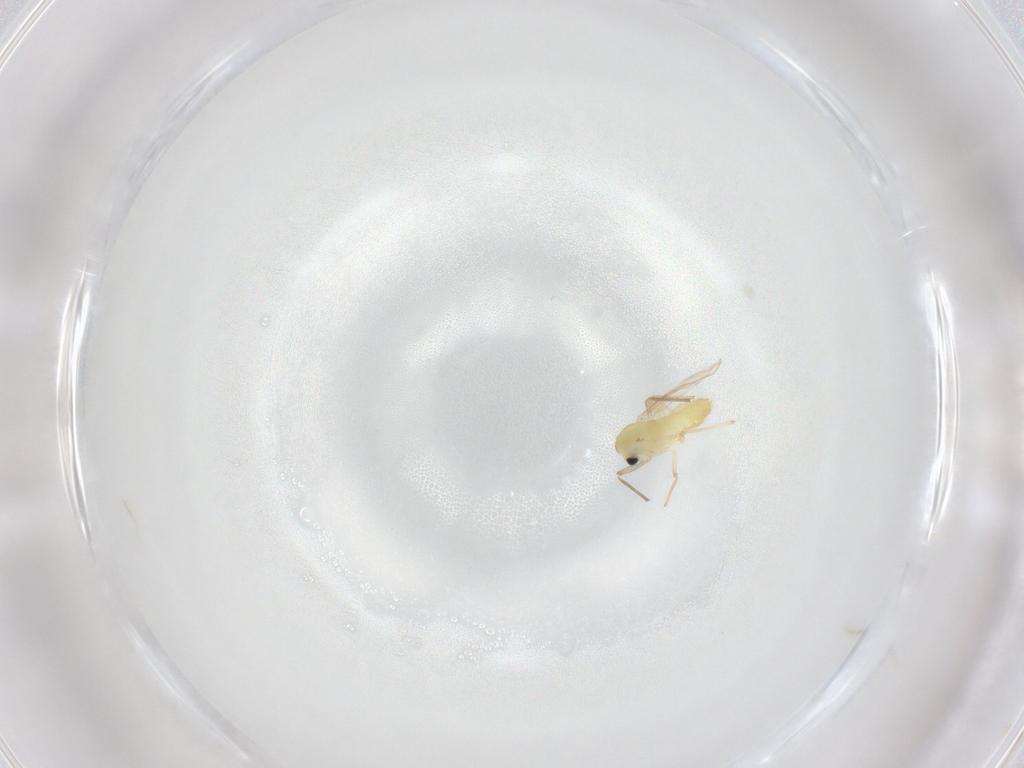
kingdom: Animalia
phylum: Arthropoda
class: Insecta
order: Diptera
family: Chironomidae
